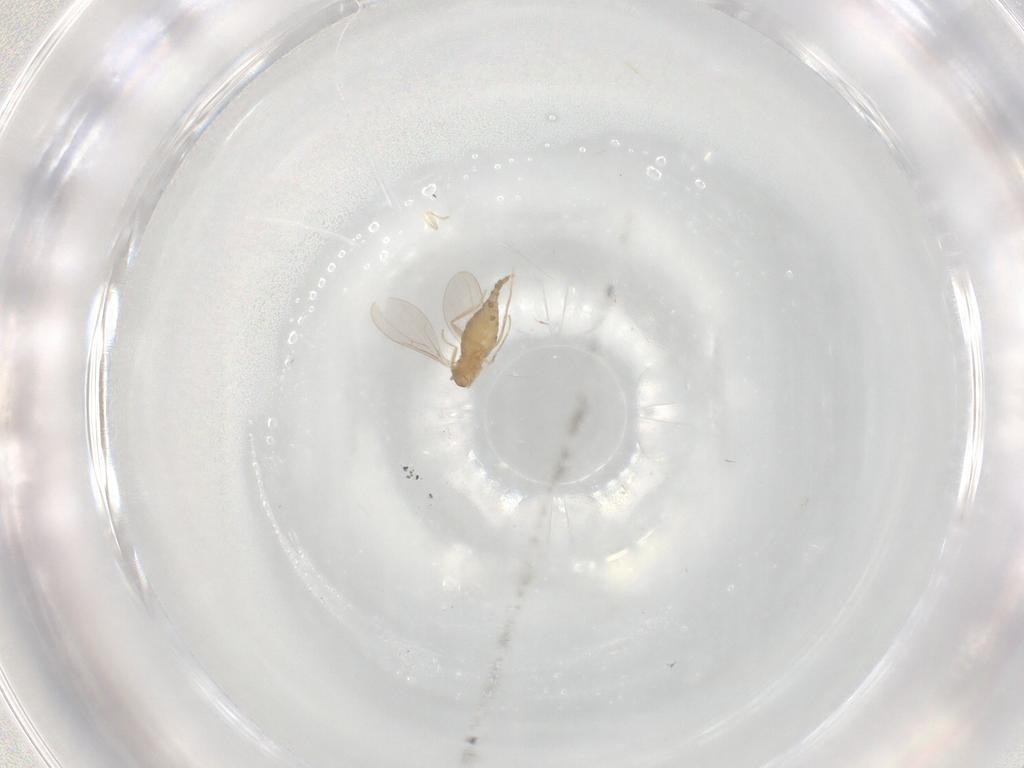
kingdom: Animalia
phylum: Arthropoda
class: Insecta
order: Diptera
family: Cecidomyiidae
